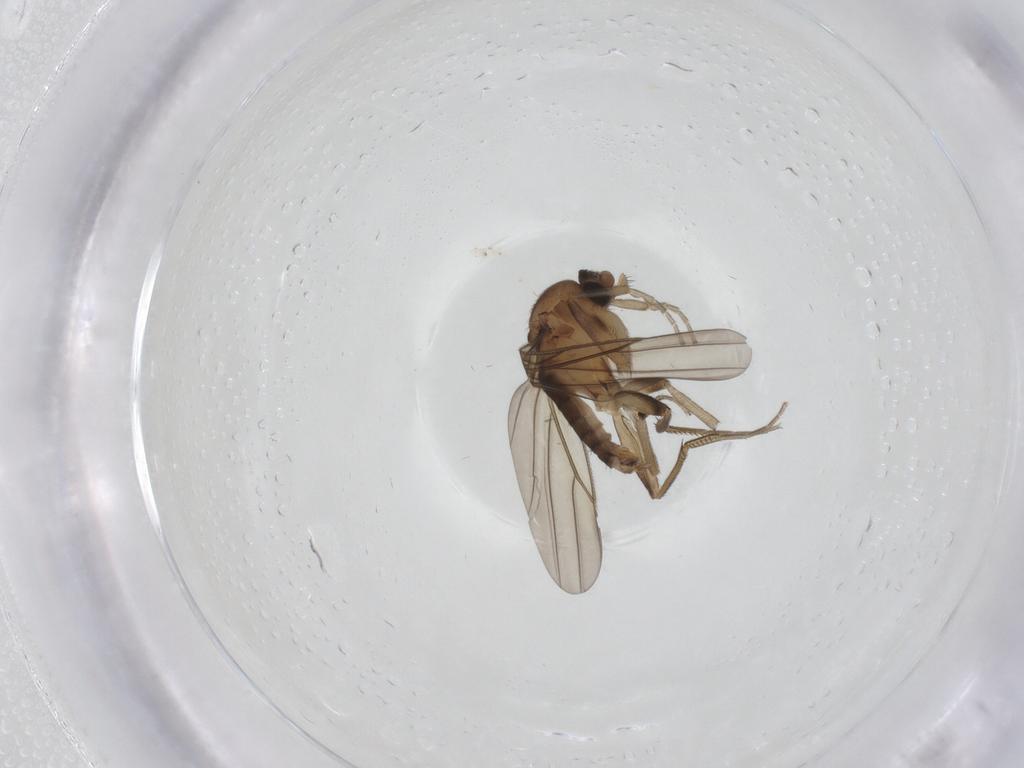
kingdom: Animalia
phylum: Arthropoda
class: Insecta
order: Diptera
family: Phoridae
